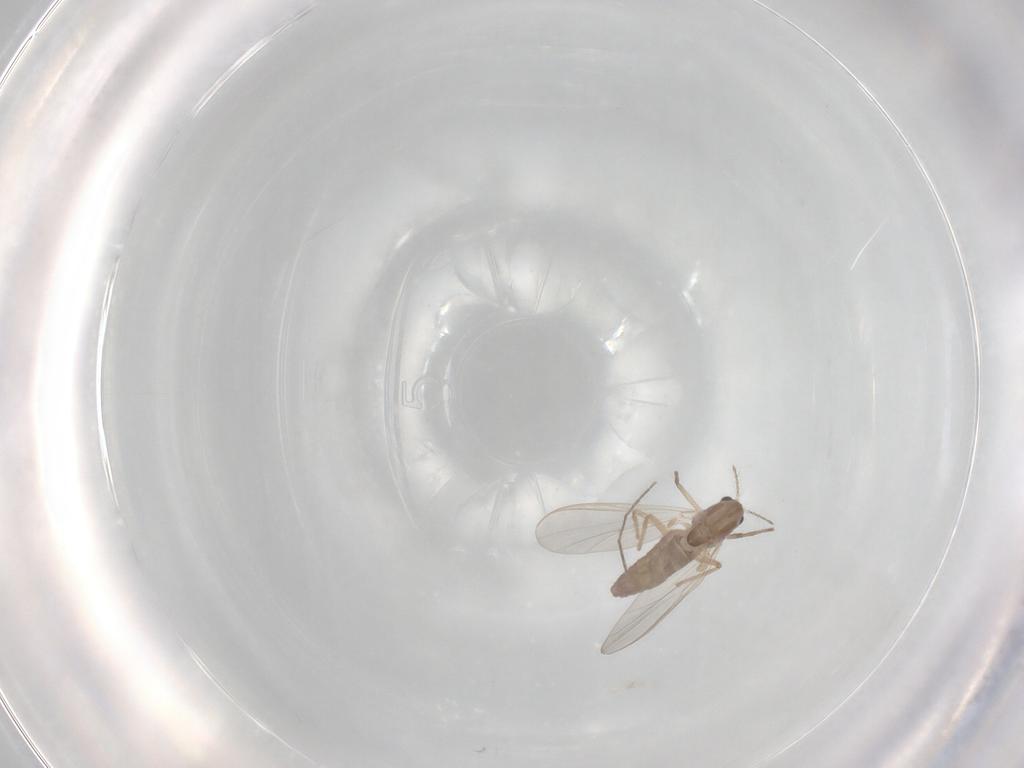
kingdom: Animalia
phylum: Arthropoda
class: Insecta
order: Diptera
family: Chironomidae
